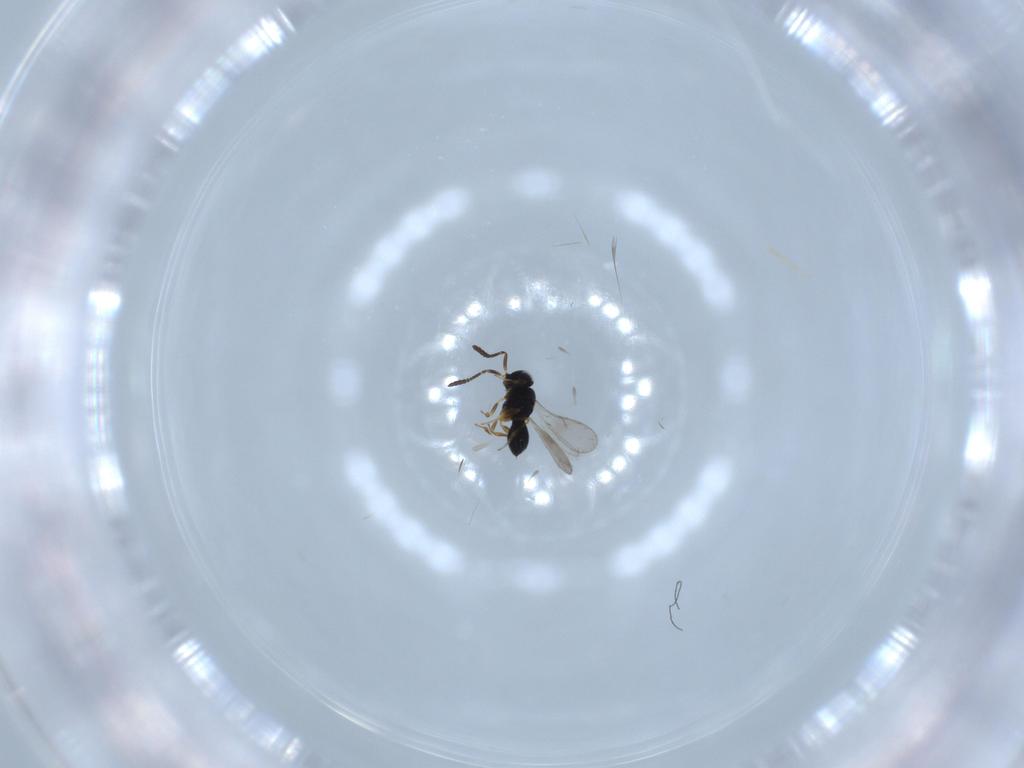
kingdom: Animalia
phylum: Arthropoda
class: Insecta
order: Hymenoptera
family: Scelionidae
